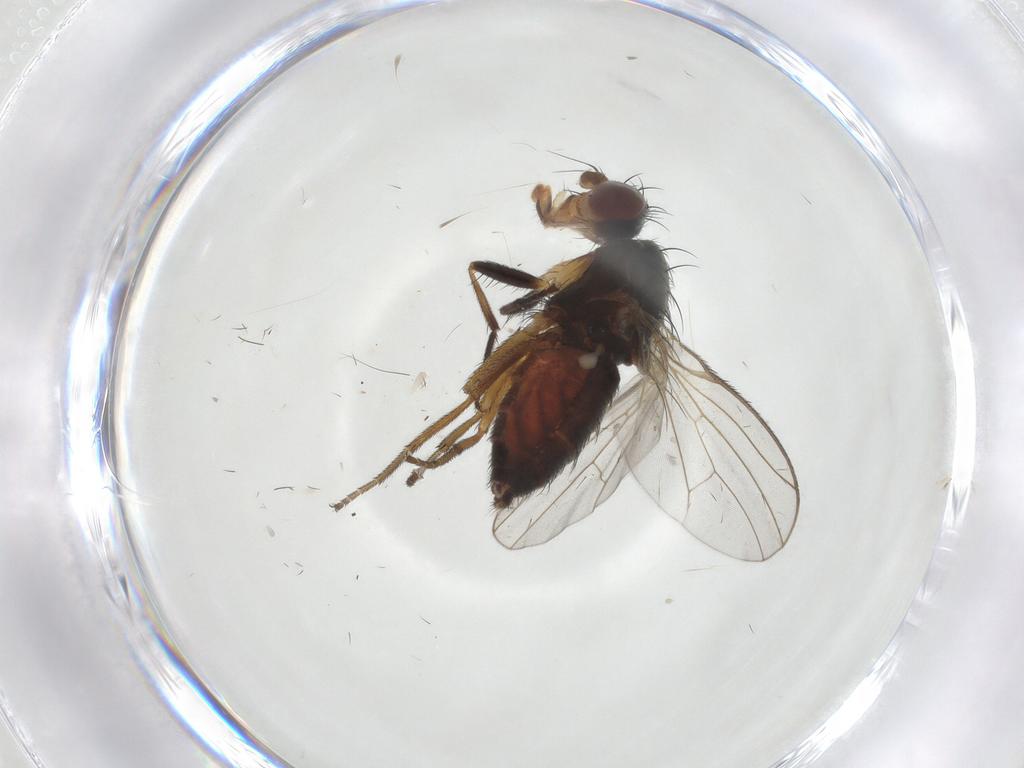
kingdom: Animalia
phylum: Arthropoda
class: Insecta
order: Diptera
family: Heleomyzidae
